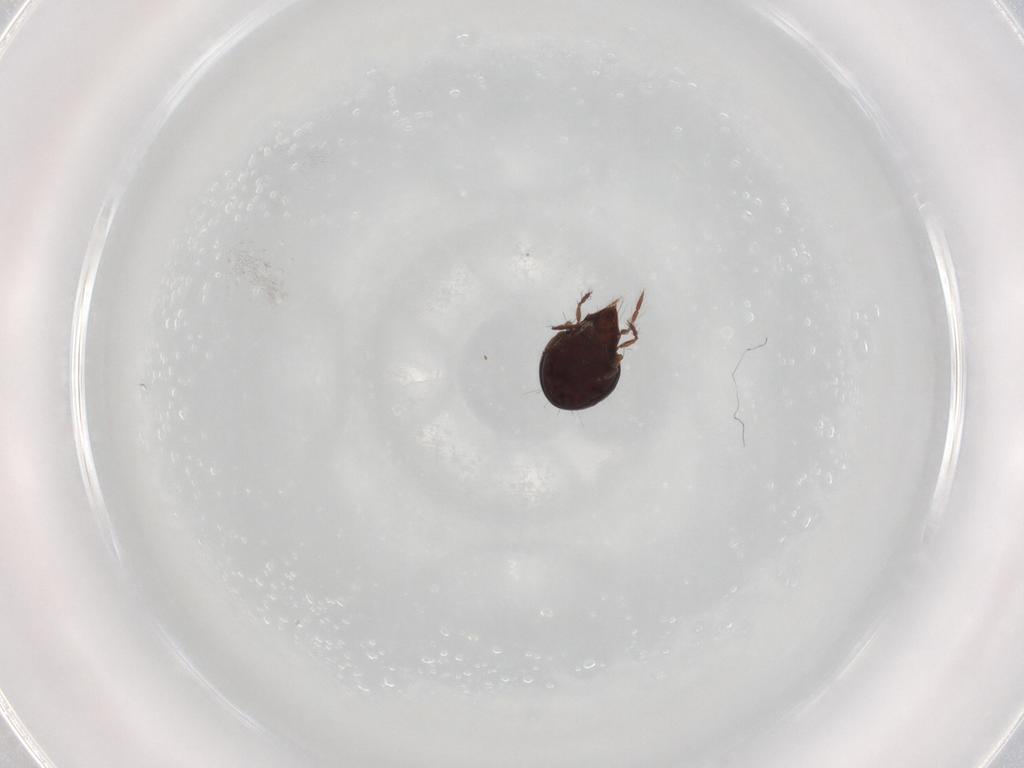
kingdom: Animalia
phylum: Arthropoda
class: Arachnida
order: Sarcoptiformes
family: Ceratoppiidae
